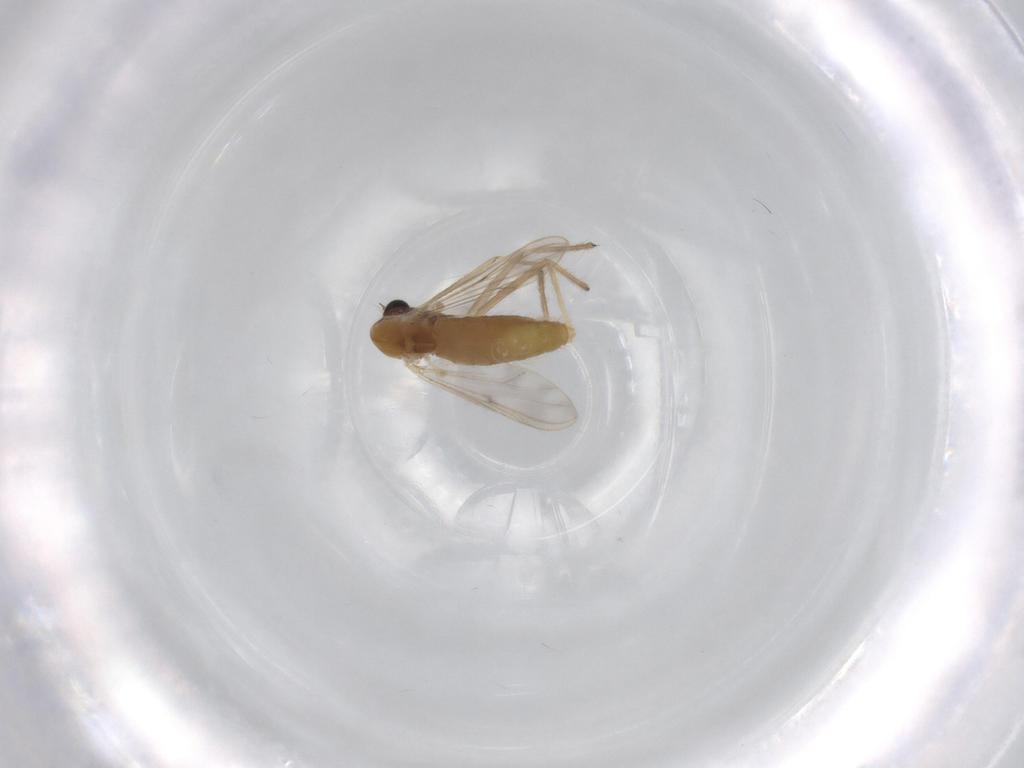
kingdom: Animalia
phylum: Arthropoda
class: Insecta
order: Diptera
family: Chironomidae
